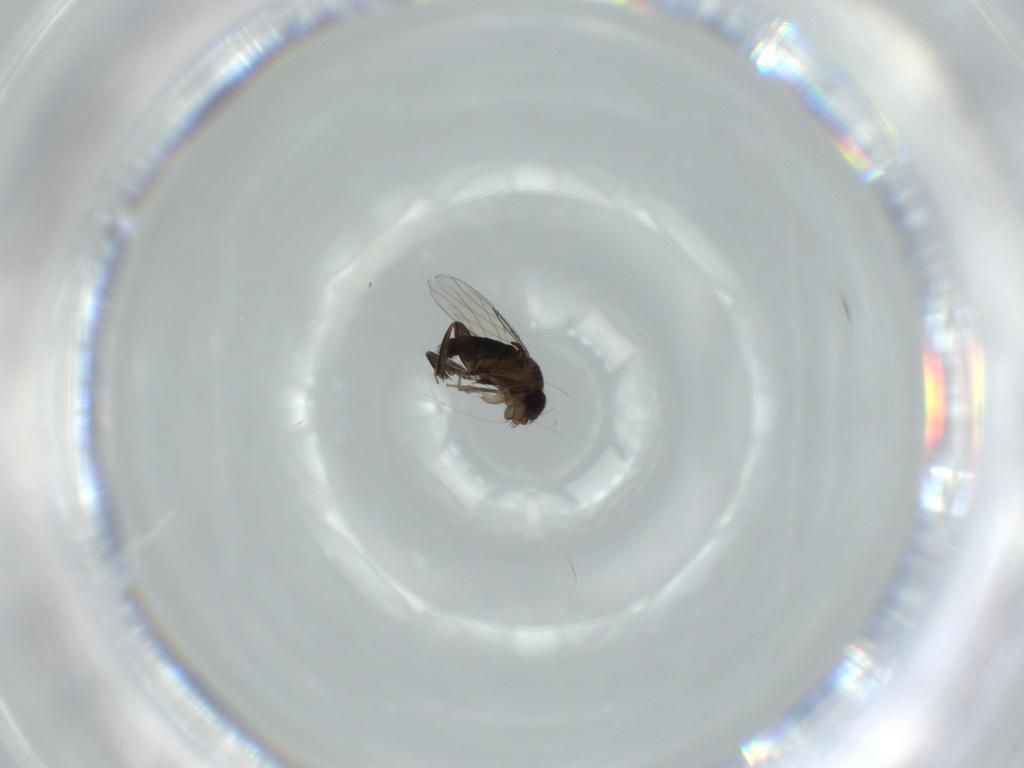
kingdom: Animalia
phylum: Arthropoda
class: Insecta
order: Diptera
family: Phoridae
